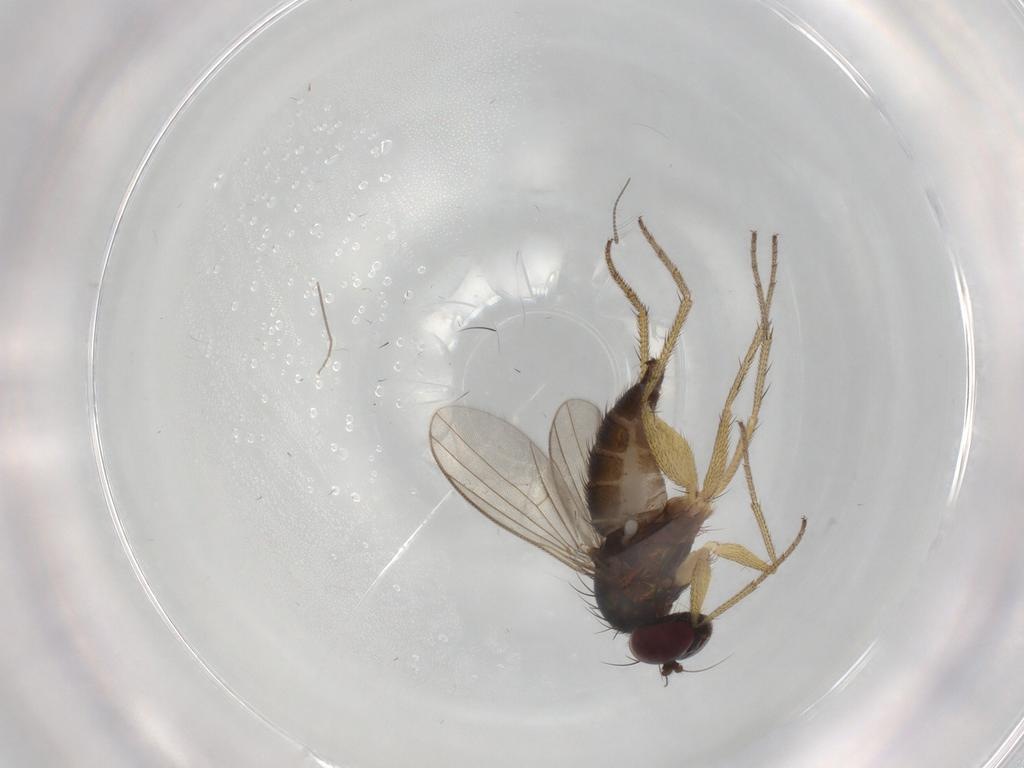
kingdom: Animalia
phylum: Arthropoda
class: Insecta
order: Diptera
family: Dolichopodidae
